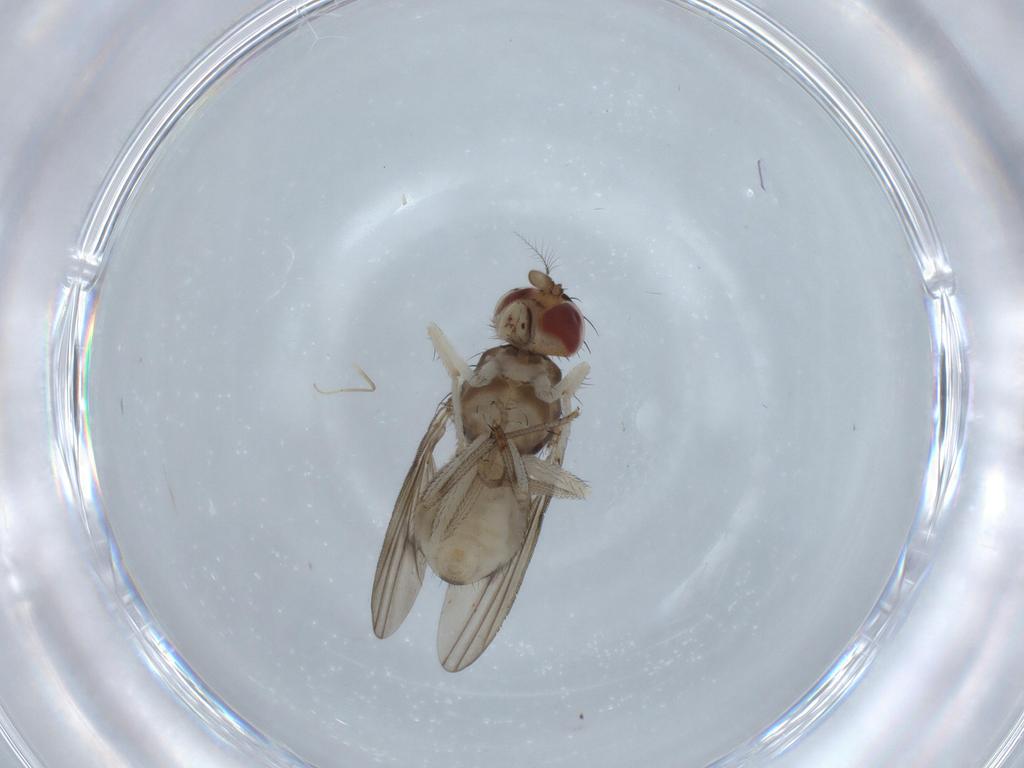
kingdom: Animalia
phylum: Arthropoda
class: Insecta
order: Diptera
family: Chironomidae
